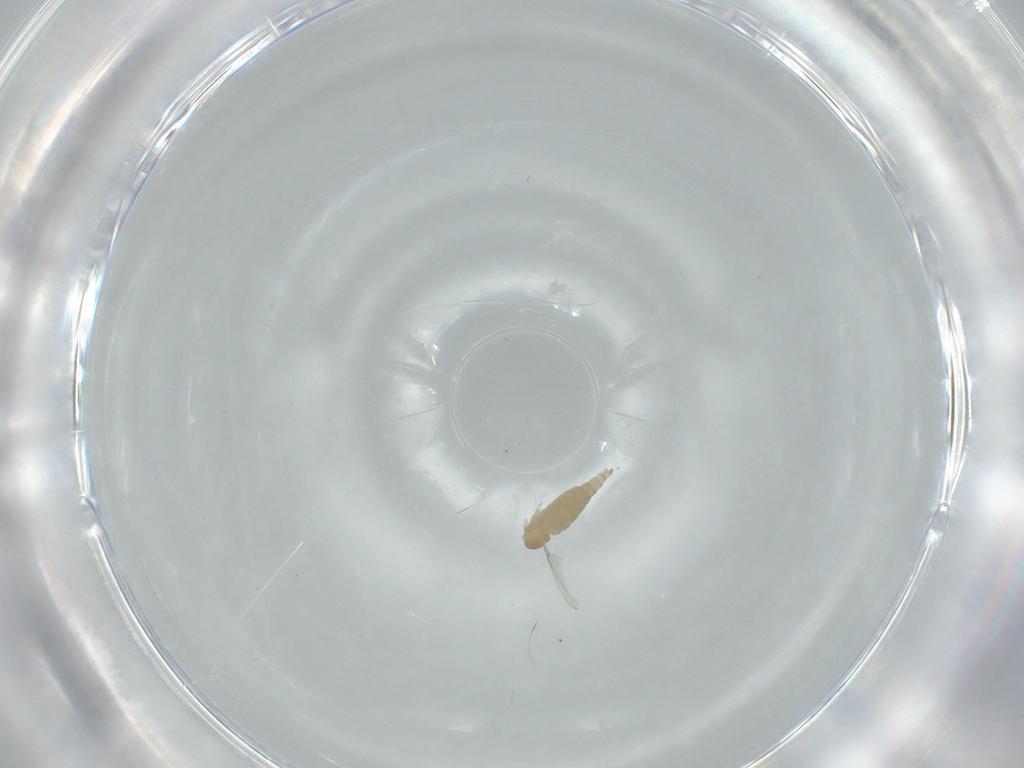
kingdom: Animalia
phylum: Arthropoda
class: Insecta
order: Diptera
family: Cecidomyiidae
